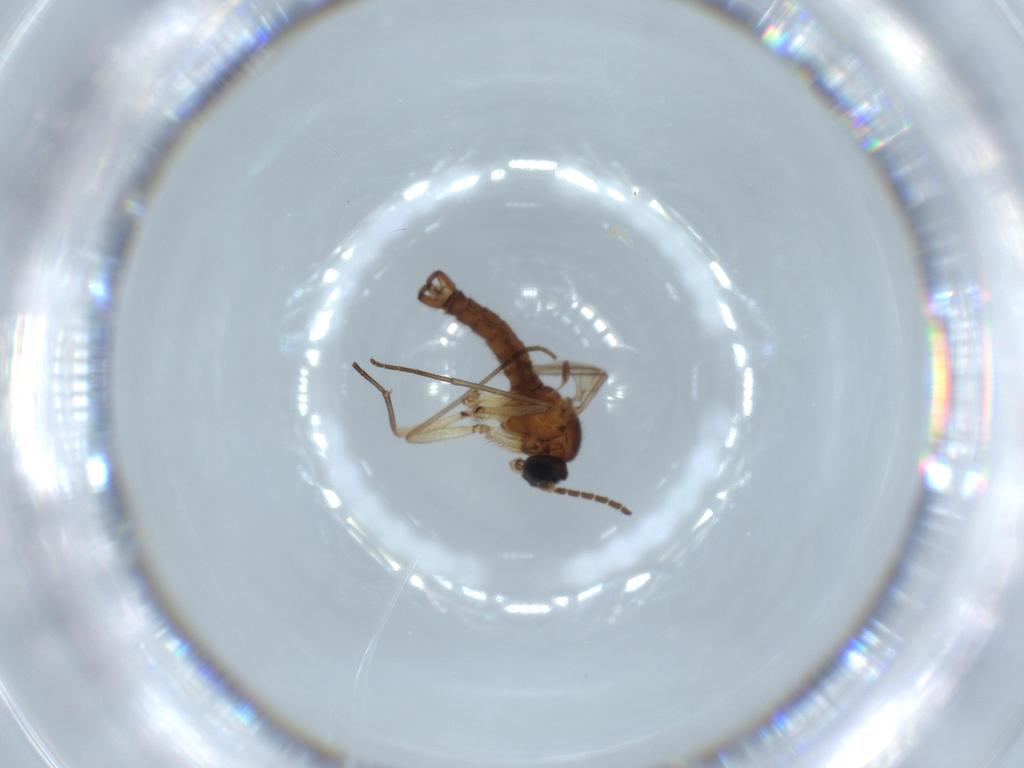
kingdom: Animalia
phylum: Arthropoda
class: Insecta
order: Diptera
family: Sciaridae
